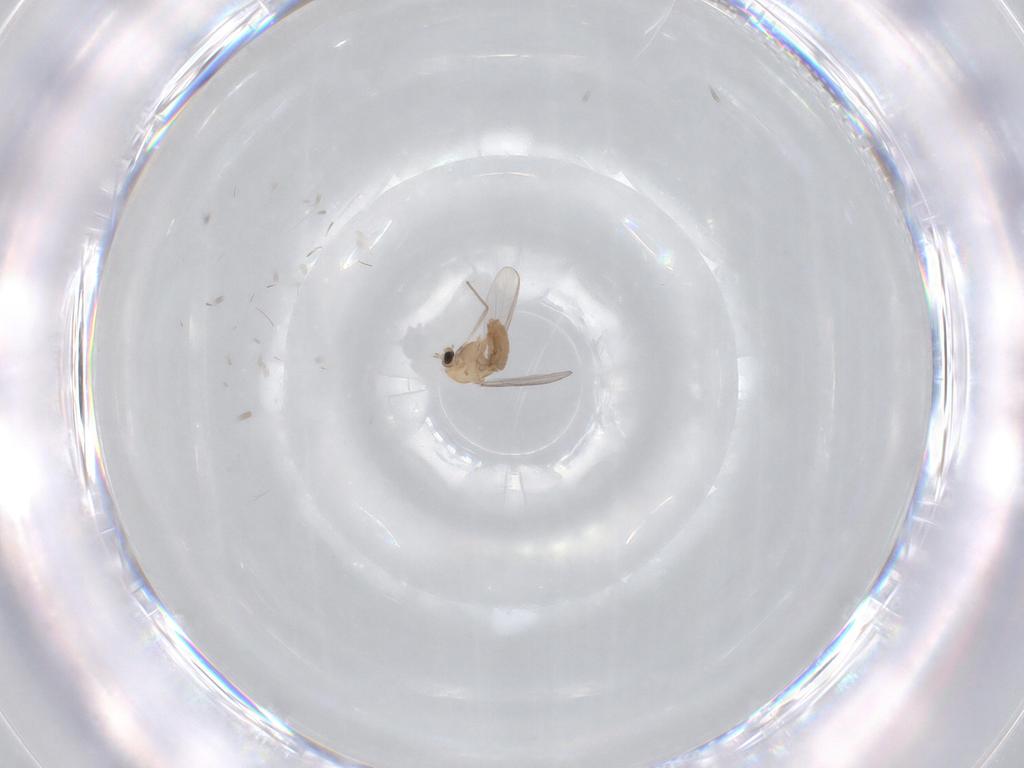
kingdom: Animalia
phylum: Arthropoda
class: Insecta
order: Diptera
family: Chironomidae
